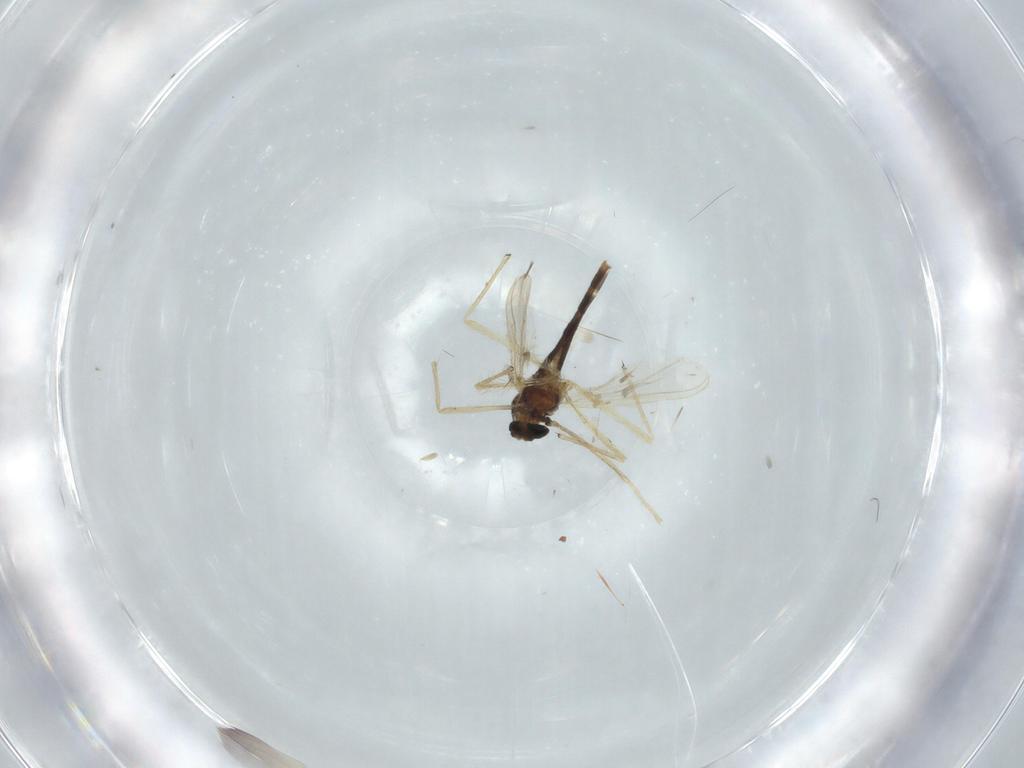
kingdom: Animalia
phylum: Arthropoda
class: Insecta
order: Diptera
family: Chironomidae
